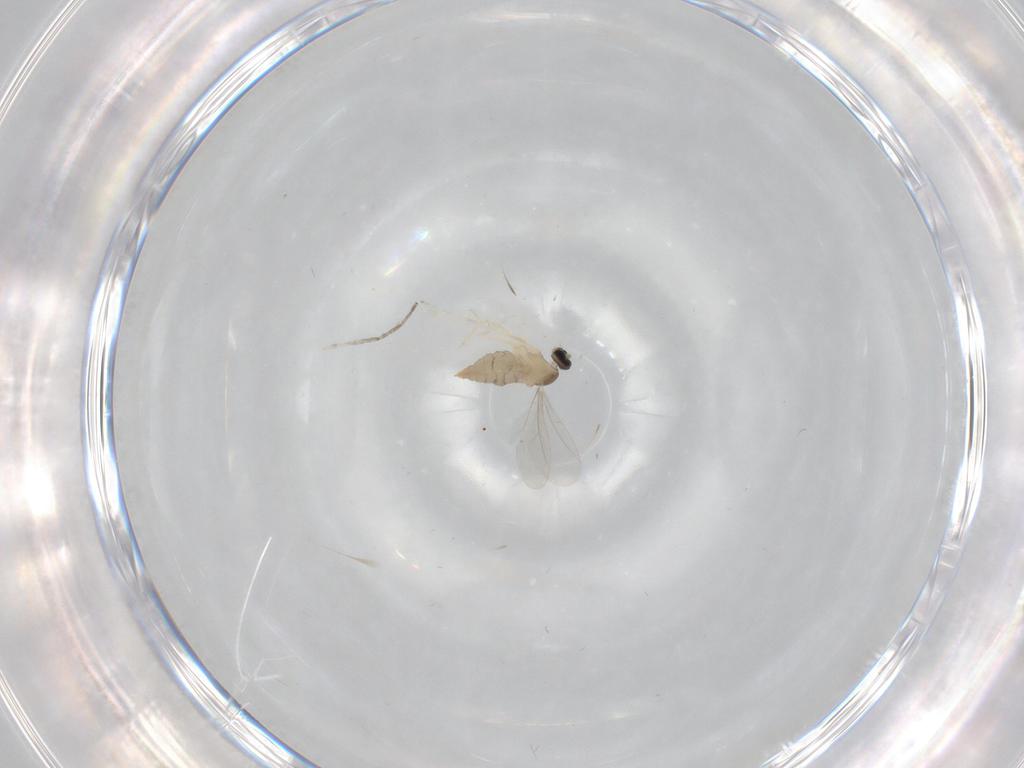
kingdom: Animalia
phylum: Arthropoda
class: Insecta
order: Diptera
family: Cecidomyiidae
